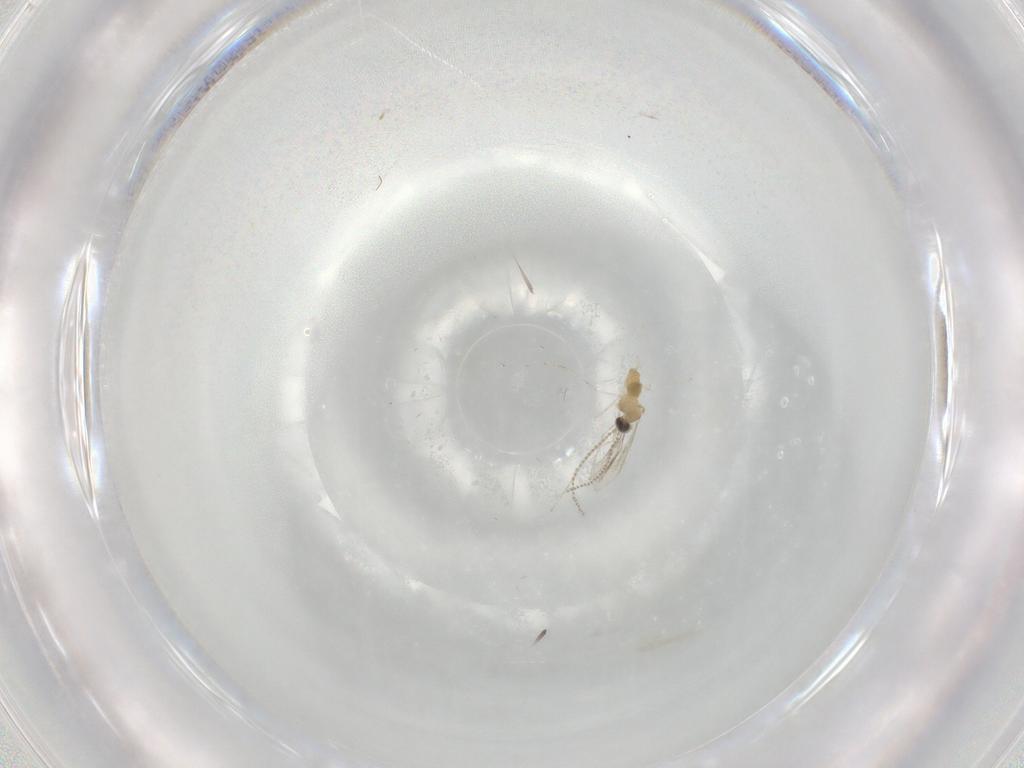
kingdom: Animalia
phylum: Arthropoda
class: Insecta
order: Diptera
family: Cecidomyiidae
